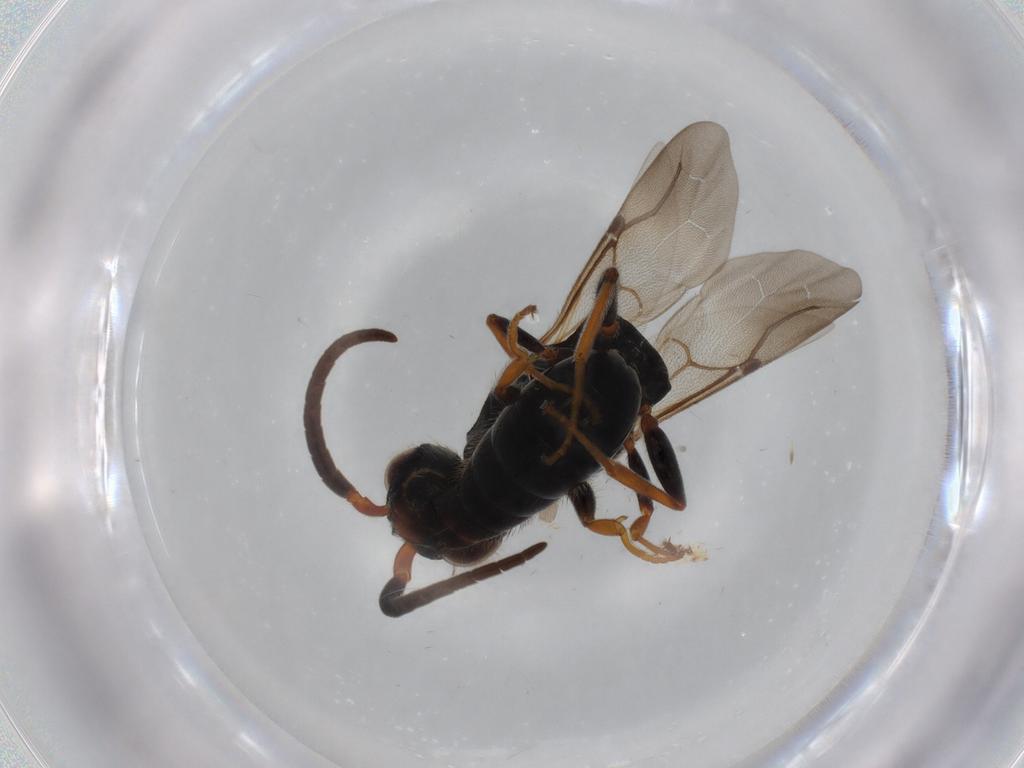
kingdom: Animalia
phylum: Arthropoda
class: Insecta
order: Hymenoptera
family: Bethylidae
